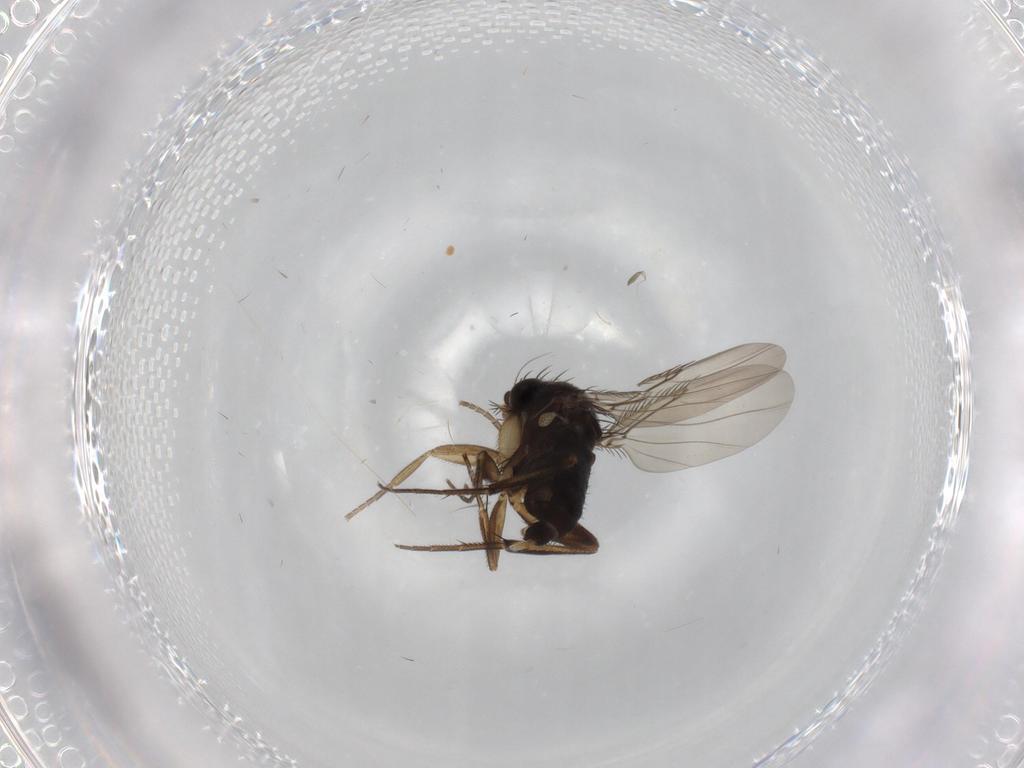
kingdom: Animalia
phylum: Arthropoda
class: Insecta
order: Diptera
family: Phoridae
